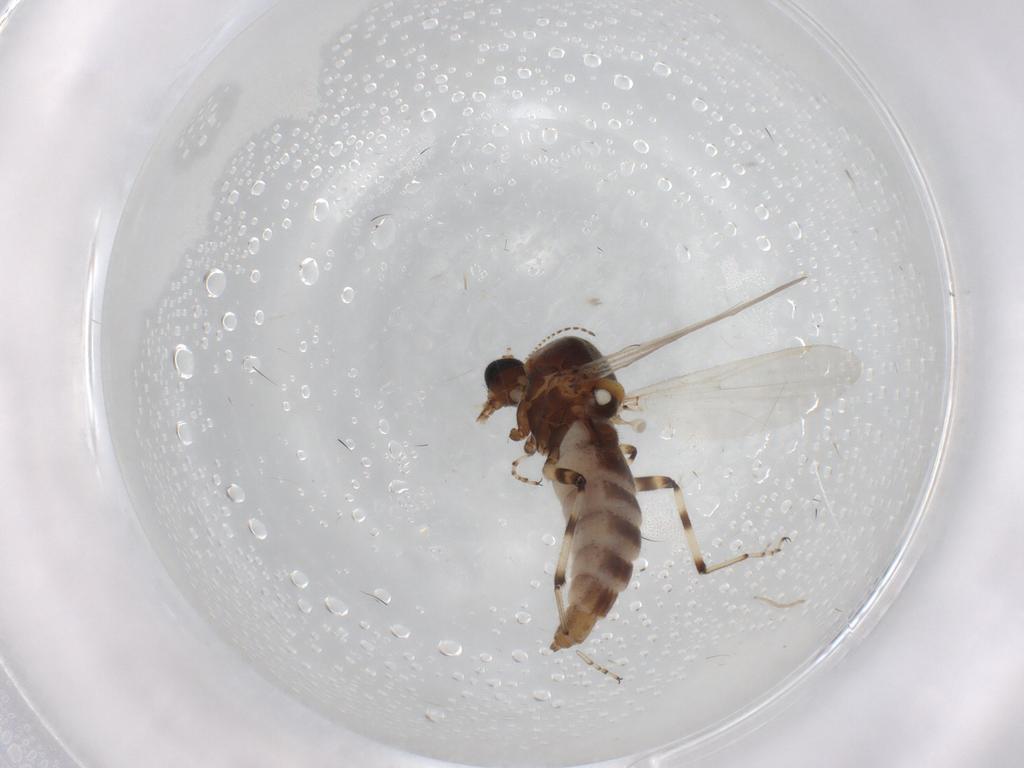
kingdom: Animalia
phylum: Arthropoda
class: Insecta
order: Diptera
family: Ceratopogonidae
